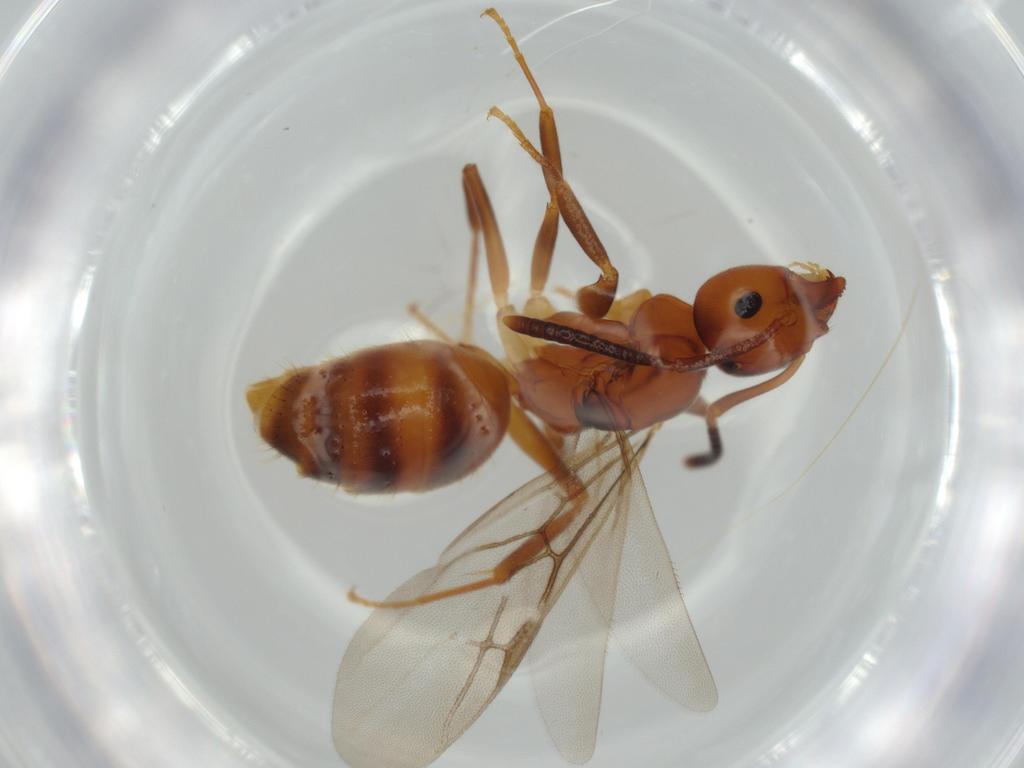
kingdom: Animalia
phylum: Arthropoda
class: Insecta
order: Hymenoptera
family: Formicidae
